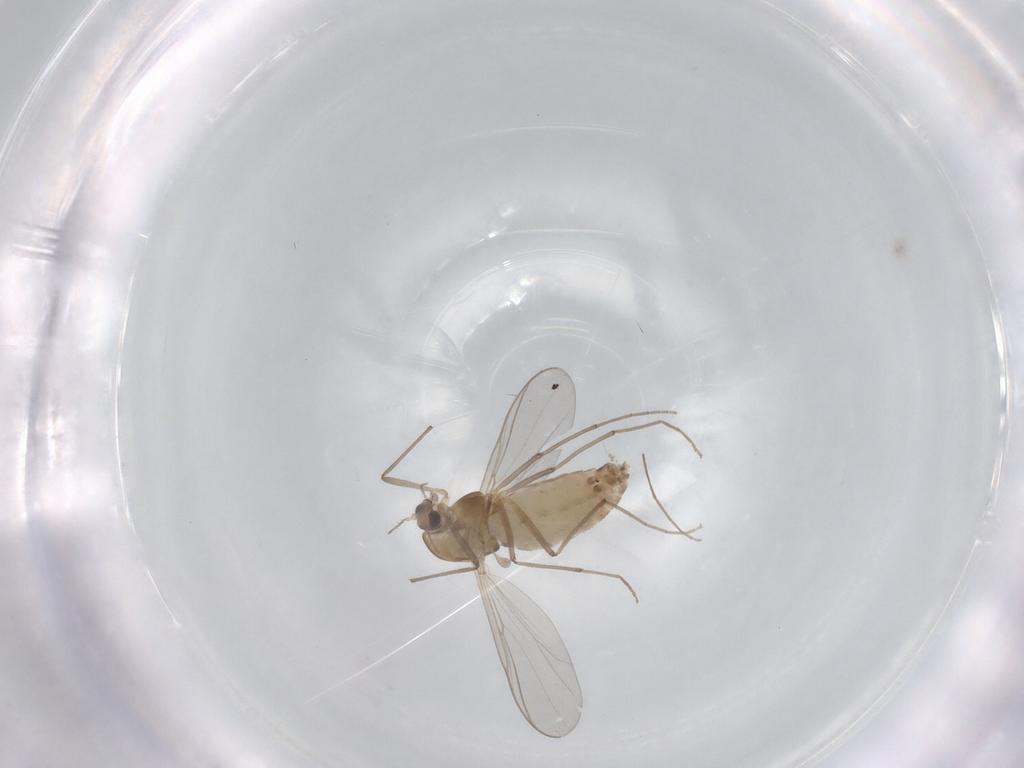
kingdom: Animalia
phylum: Arthropoda
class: Insecta
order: Diptera
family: Chironomidae
